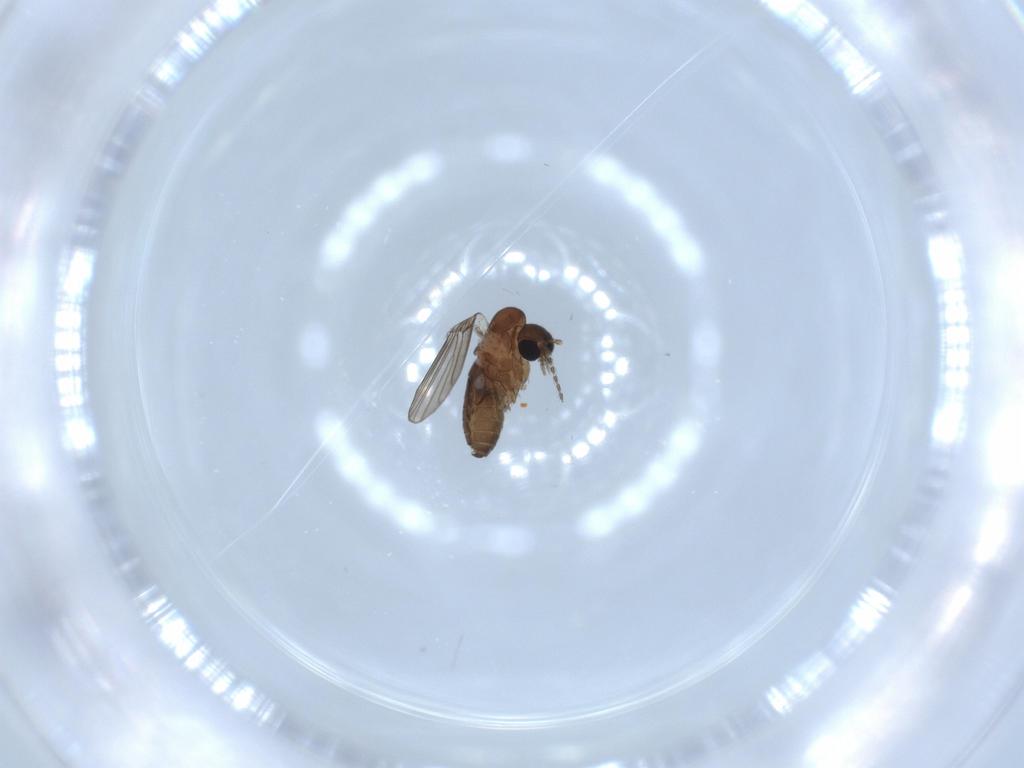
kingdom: Animalia
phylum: Arthropoda
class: Insecta
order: Diptera
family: Psychodidae
